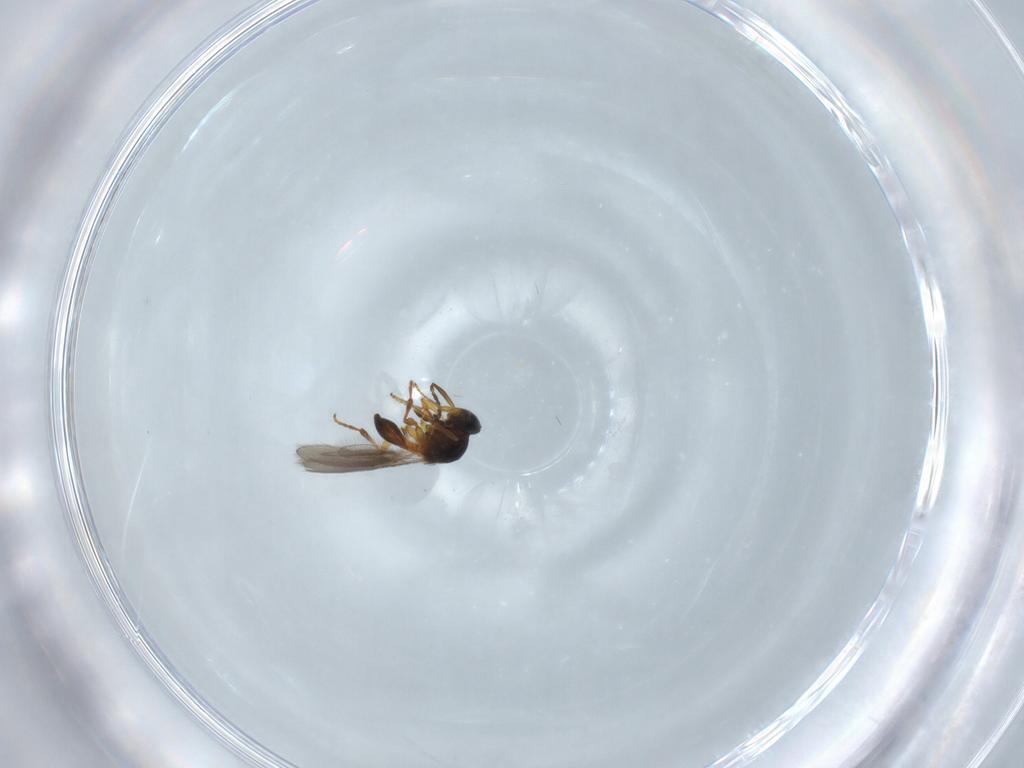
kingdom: Animalia
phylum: Arthropoda
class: Insecta
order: Hymenoptera
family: Platygastridae
